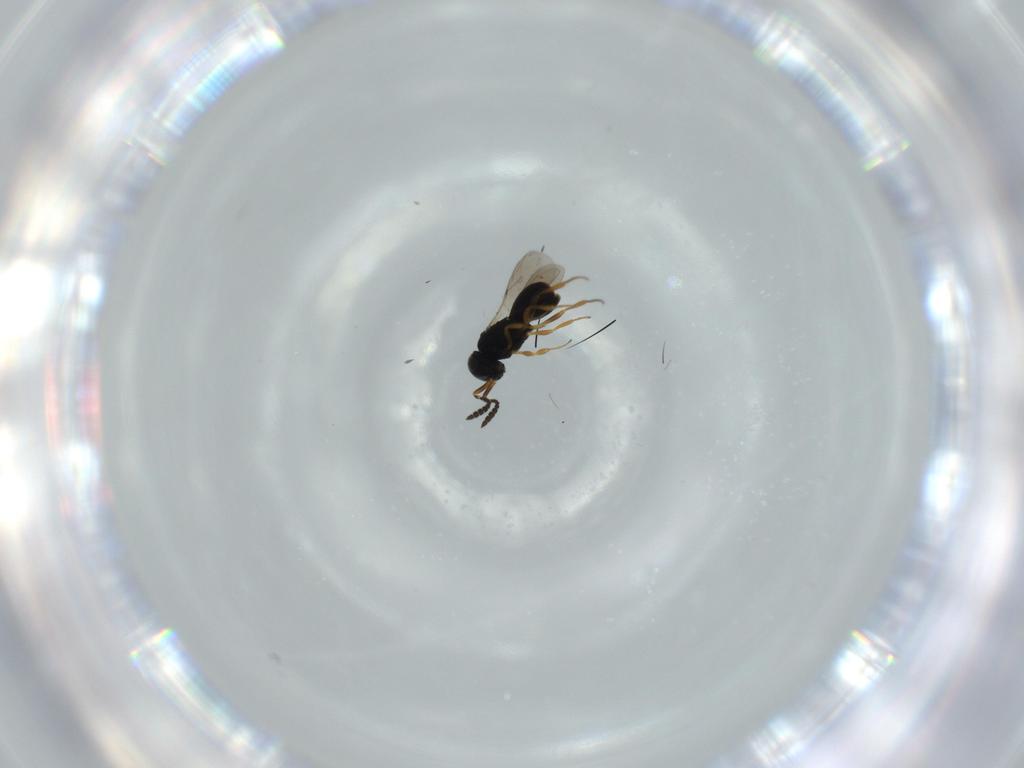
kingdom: Animalia
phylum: Arthropoda
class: Insecta
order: Hymenoptera
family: Scelionidae
